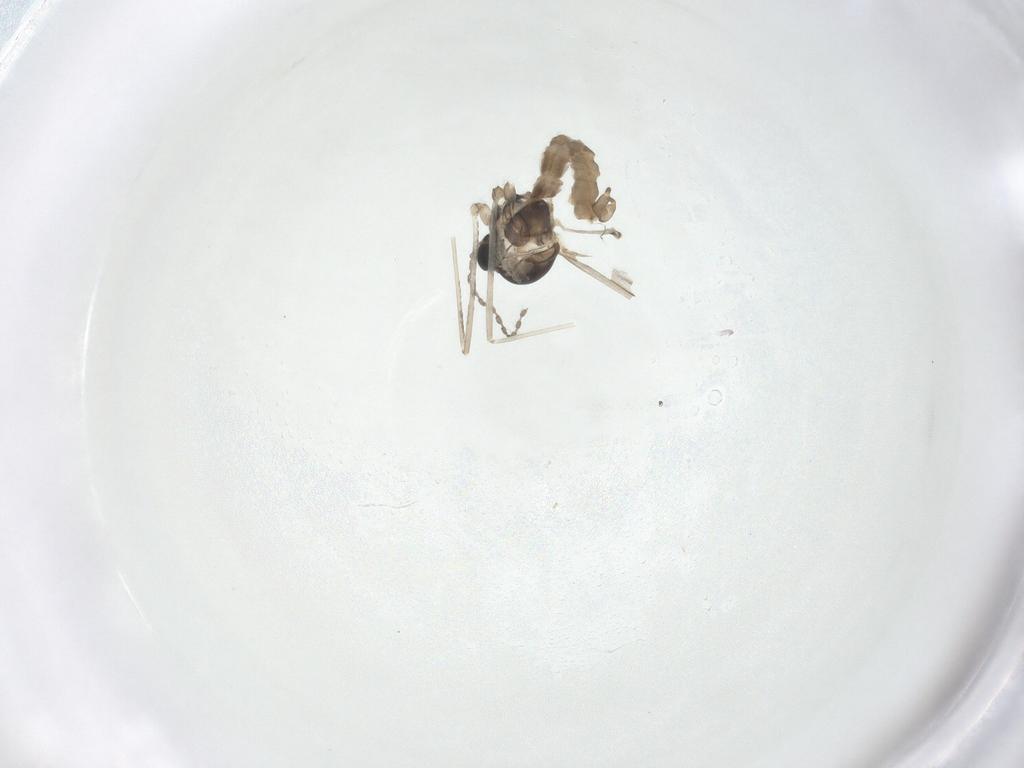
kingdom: Animalia
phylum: Arthropoda
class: Insecta
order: Diptera
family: Cecidomyiidae
